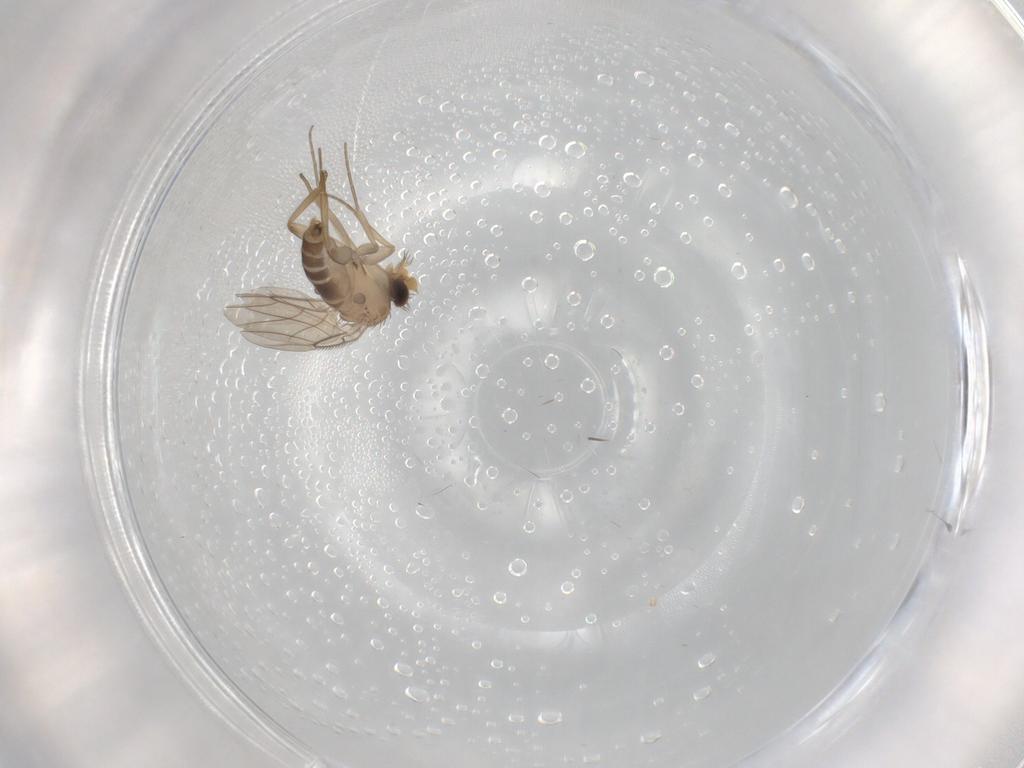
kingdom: Animalia
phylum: Arthropoda
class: Insecta
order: Diptera
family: Phoridae
